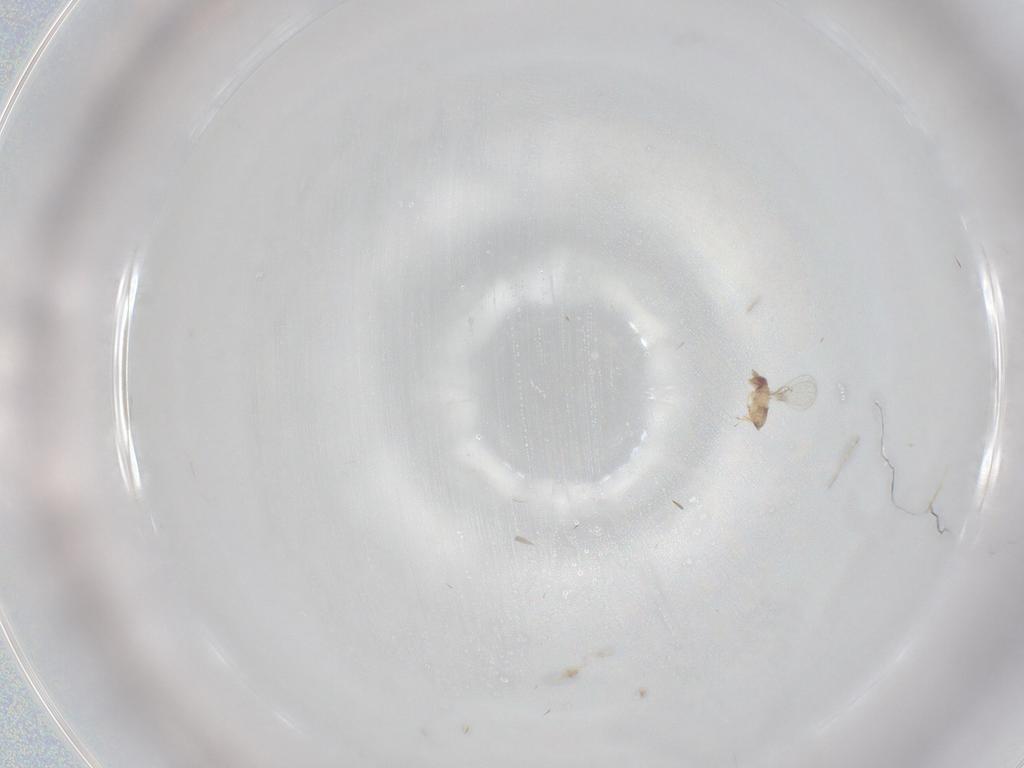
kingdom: Animalia
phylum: Arthropoda
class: Insecta
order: Hymenoptera
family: Trichogrammatidae
